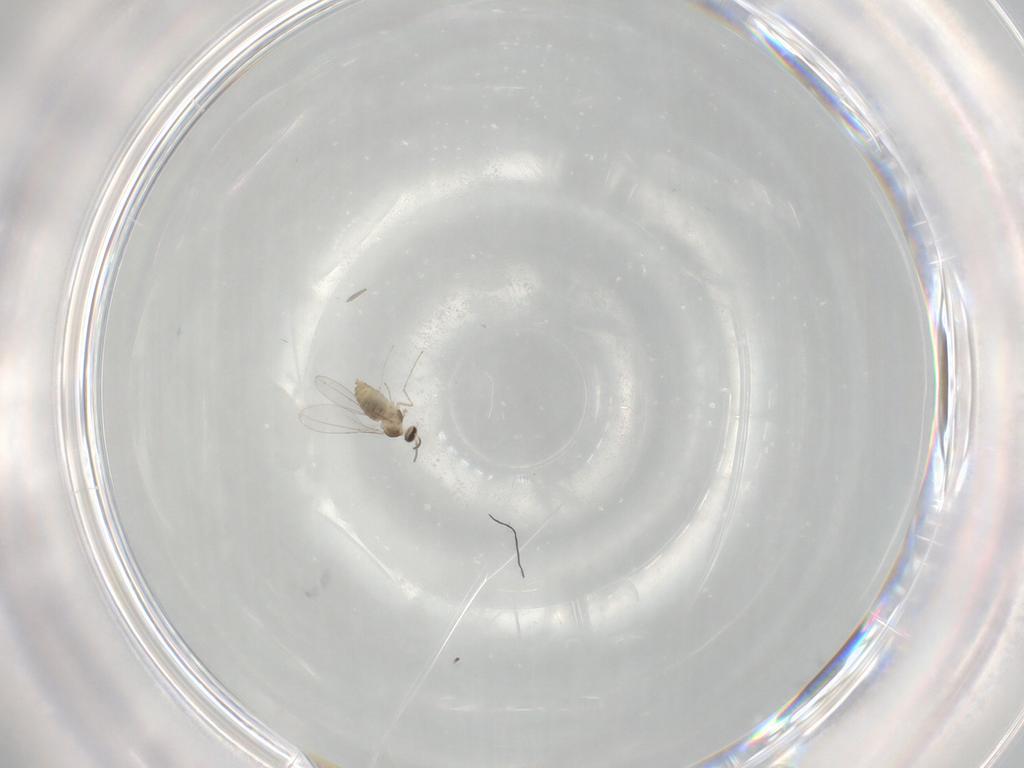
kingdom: Animalia
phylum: Arthropoda
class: Insecta
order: Diptera
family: Cecidomyiidae
